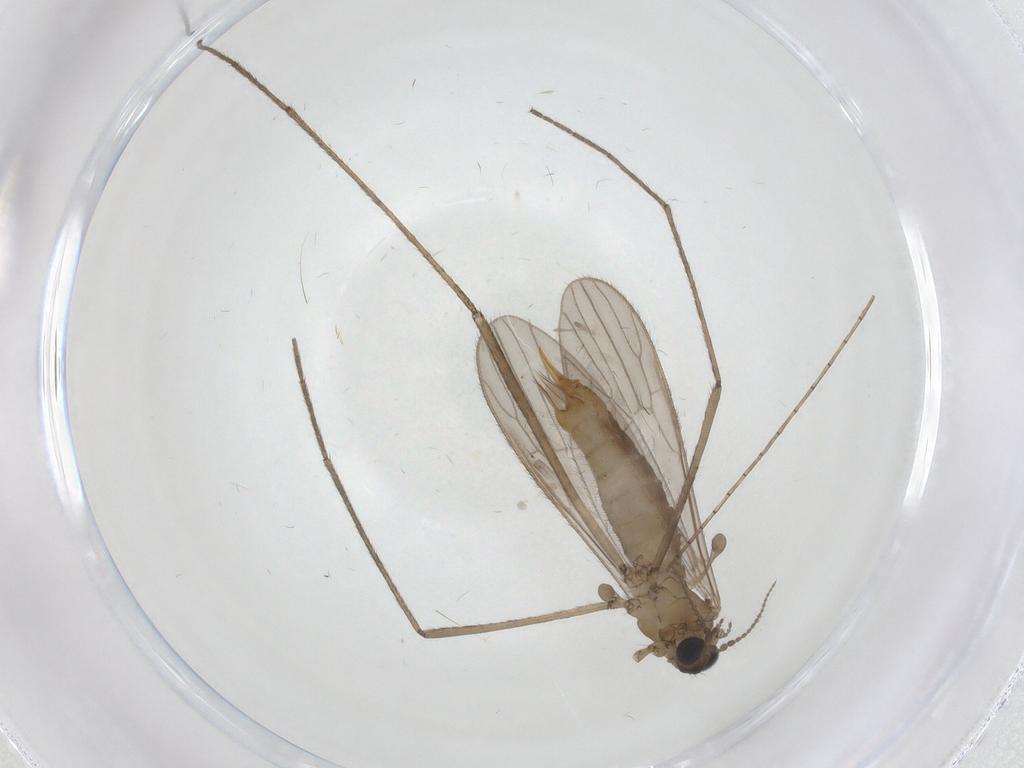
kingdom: Animalia
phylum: Arthropoda
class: Insecta
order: Diptera
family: Limoniidae
